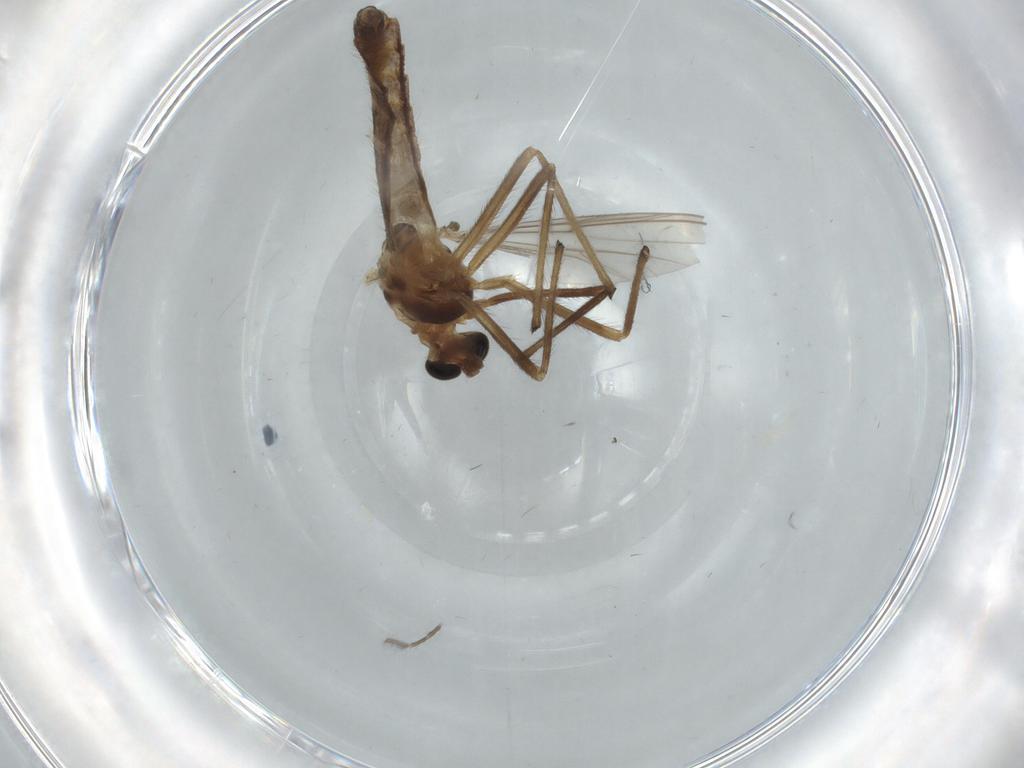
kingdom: Animalia
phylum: Arthropoda
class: Insecta
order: Diptera
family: Chironomidae
